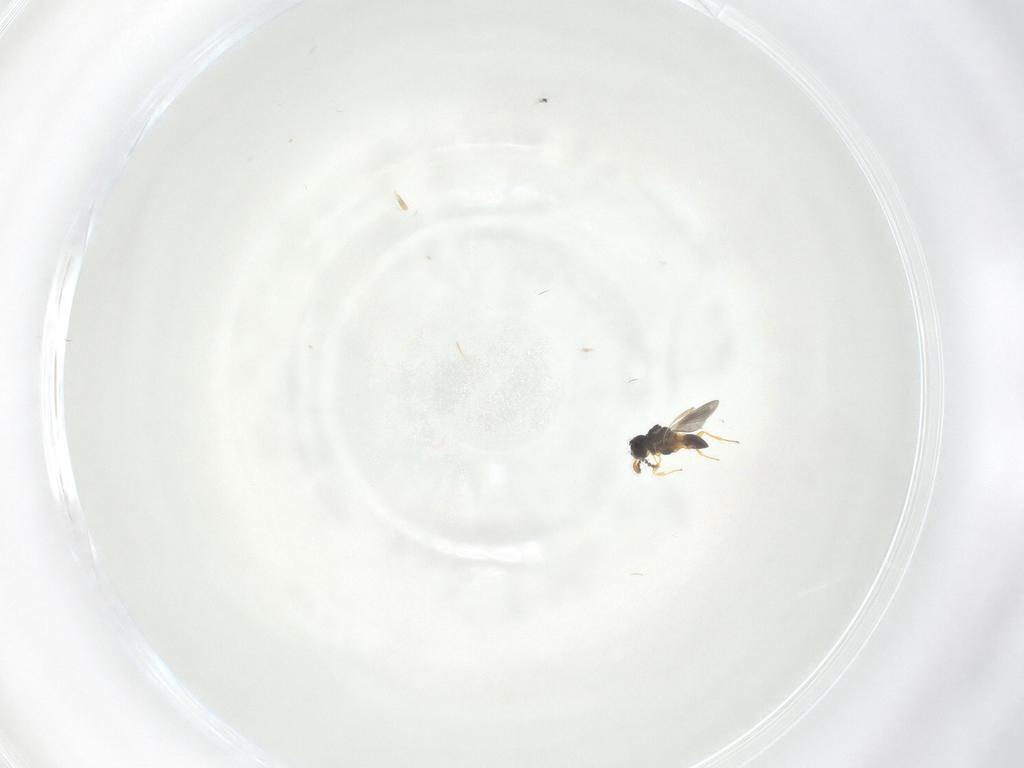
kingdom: Animalia
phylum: Arthropoda
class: Insecta
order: Hymenoptera
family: Platygastridae
